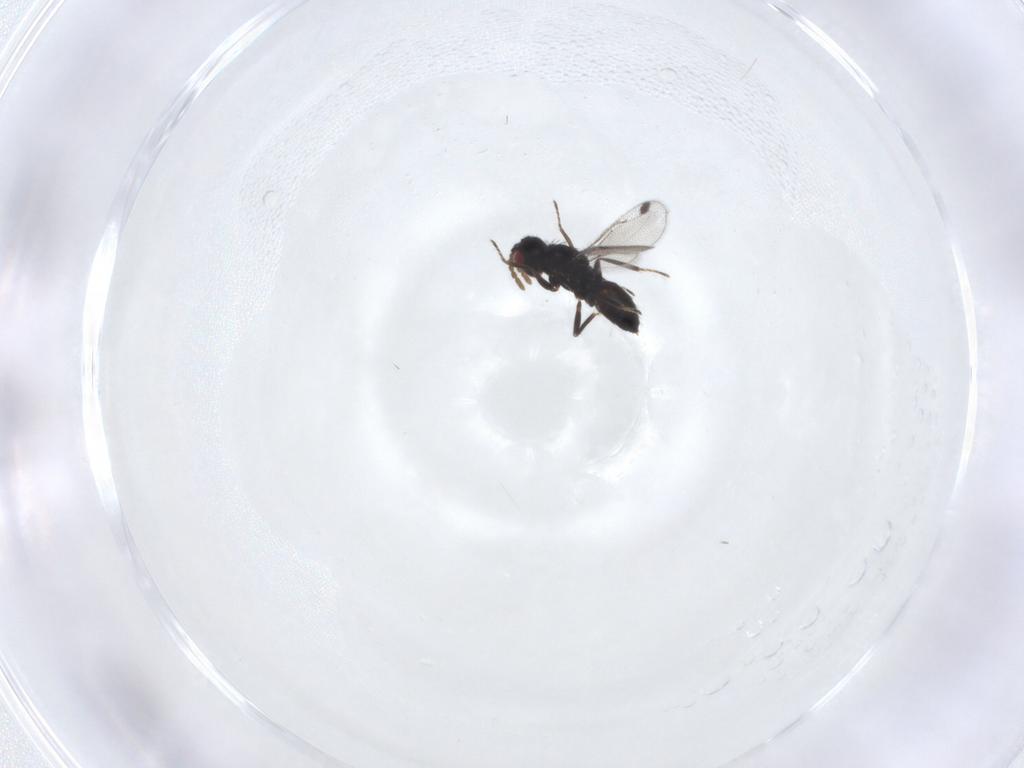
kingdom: Animalia
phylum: Arthropoda
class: Insecta
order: Hymenoptera
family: Eulophidae
